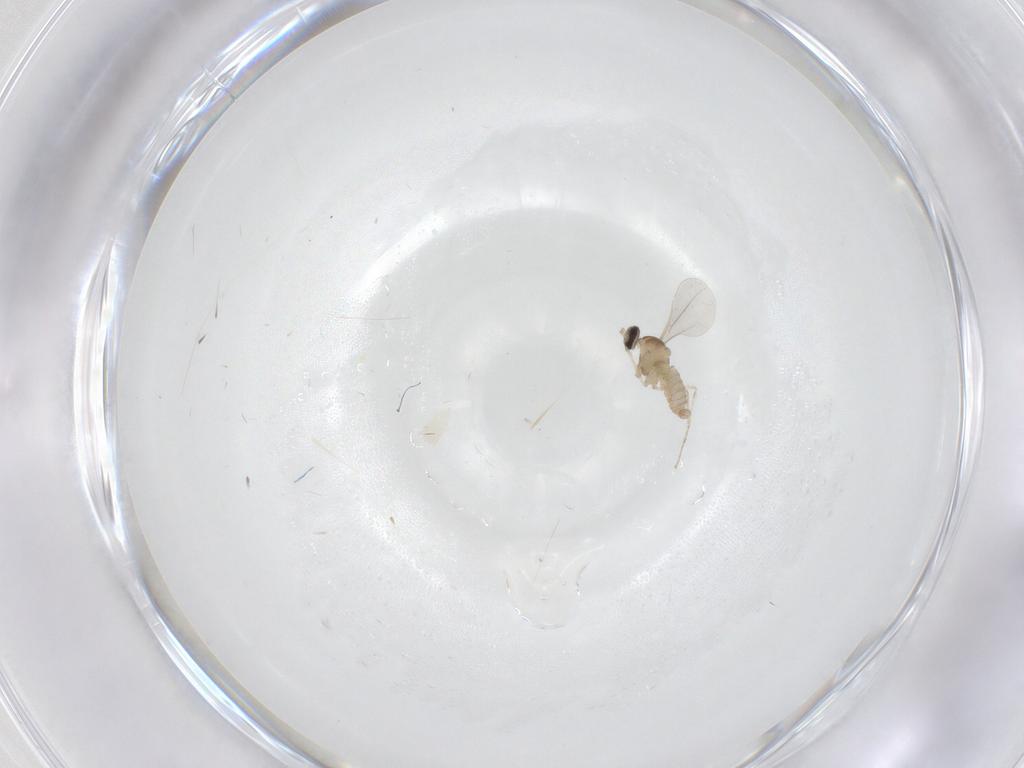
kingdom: Animalia
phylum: Arthropoda
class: Insecta
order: Diptera
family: Cecidomyiidae
